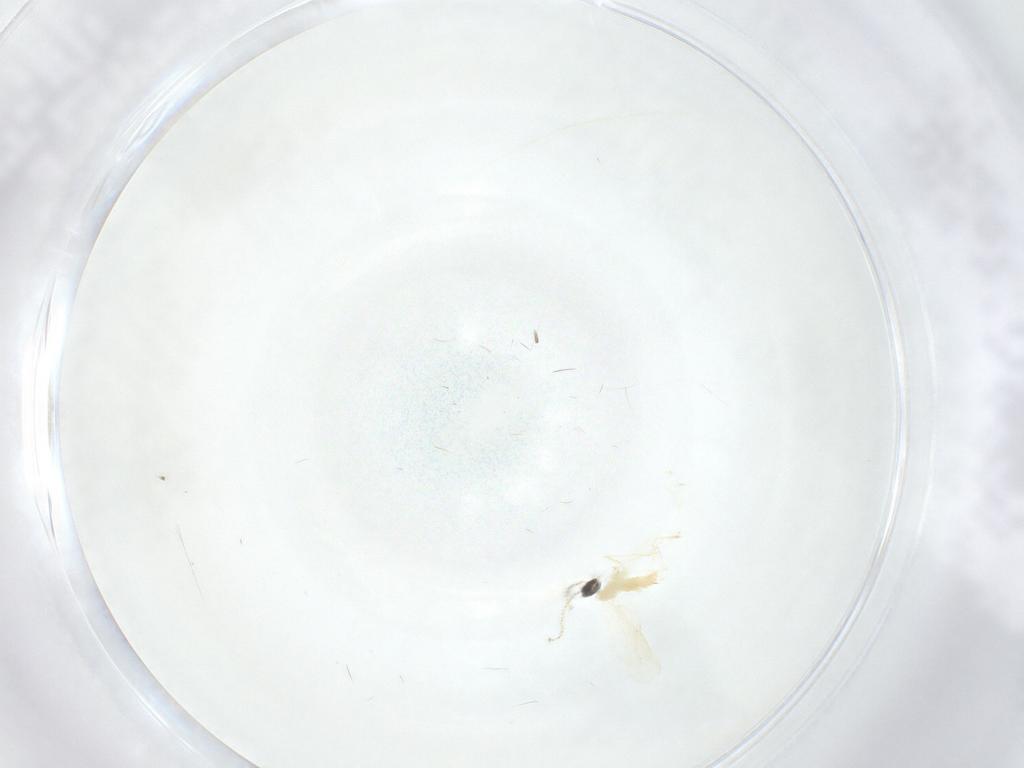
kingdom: Animalia
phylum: Arthropoda
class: Insecta
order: Diptera
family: Cecidomyiidae
